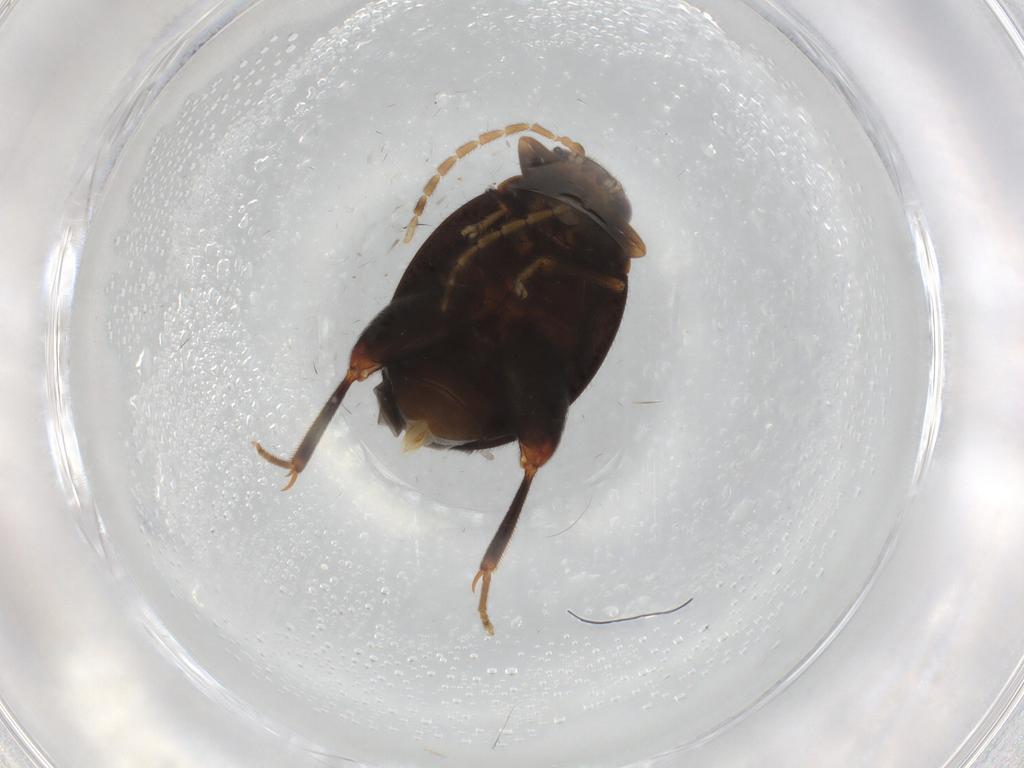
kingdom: Animalia
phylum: Arthropoda
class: Insecta
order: Coleoptera
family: Scirtidae
